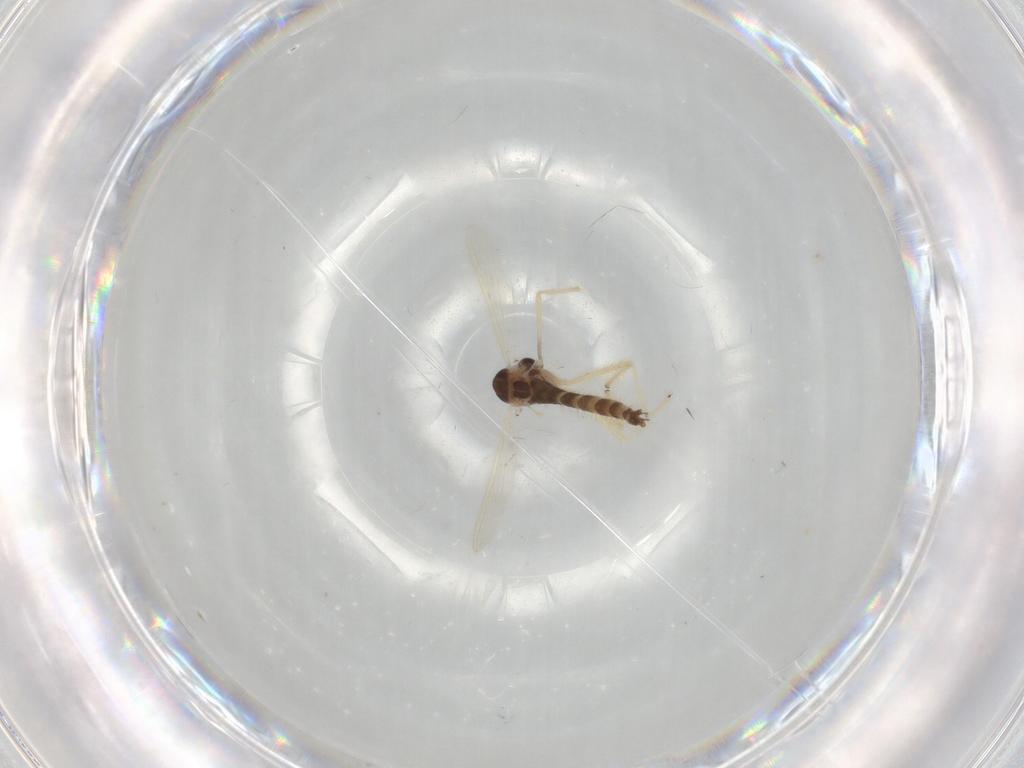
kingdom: Animalia
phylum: Arthropoda
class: Insecta
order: Diptera
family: Chironomidae
